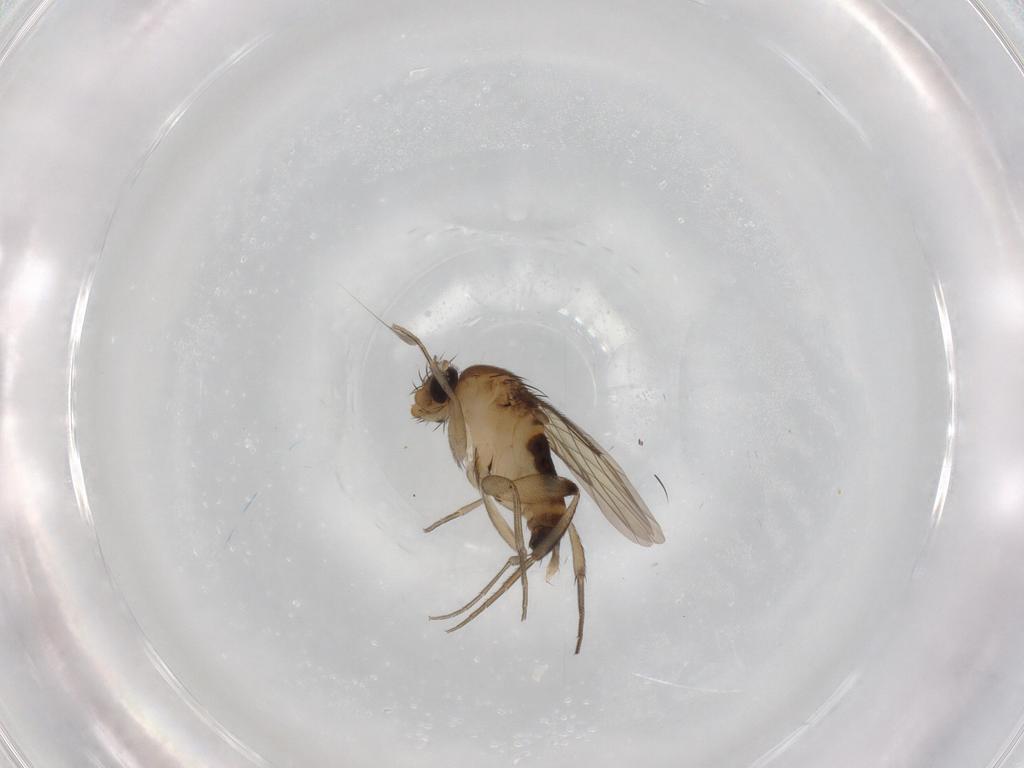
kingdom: Animalia
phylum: Arthropoda
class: Insecta
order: Diptera
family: Phoridae
